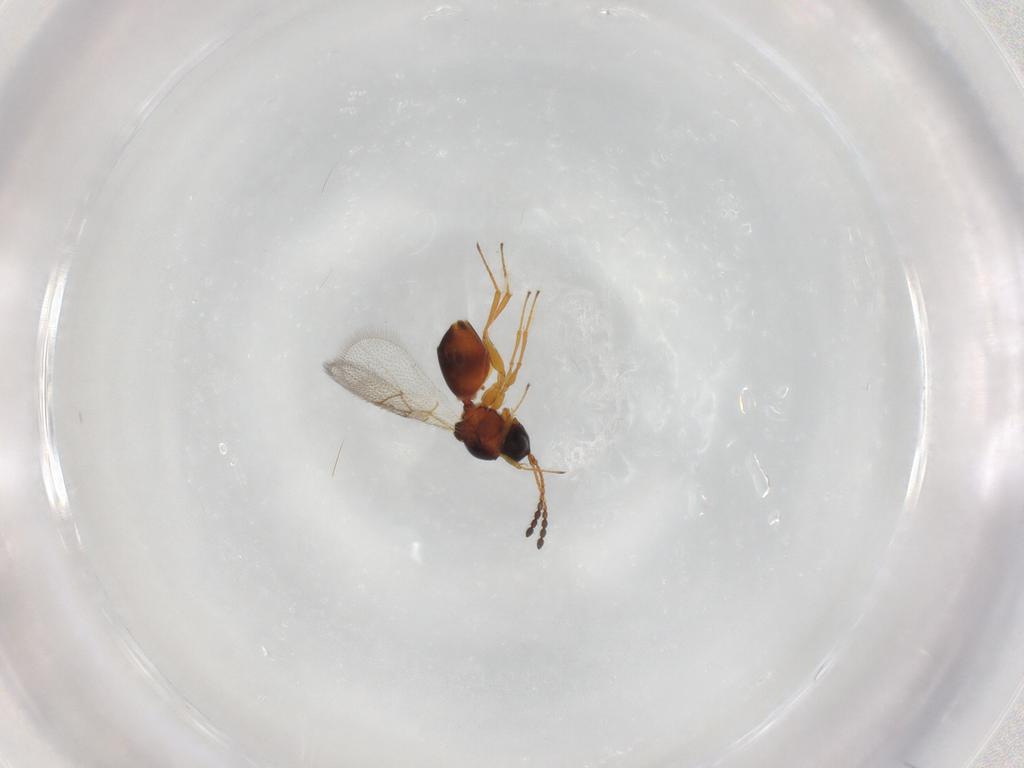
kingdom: Animalia
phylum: Arthropoda
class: Insecta
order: Hymenoptera
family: Figitidae
